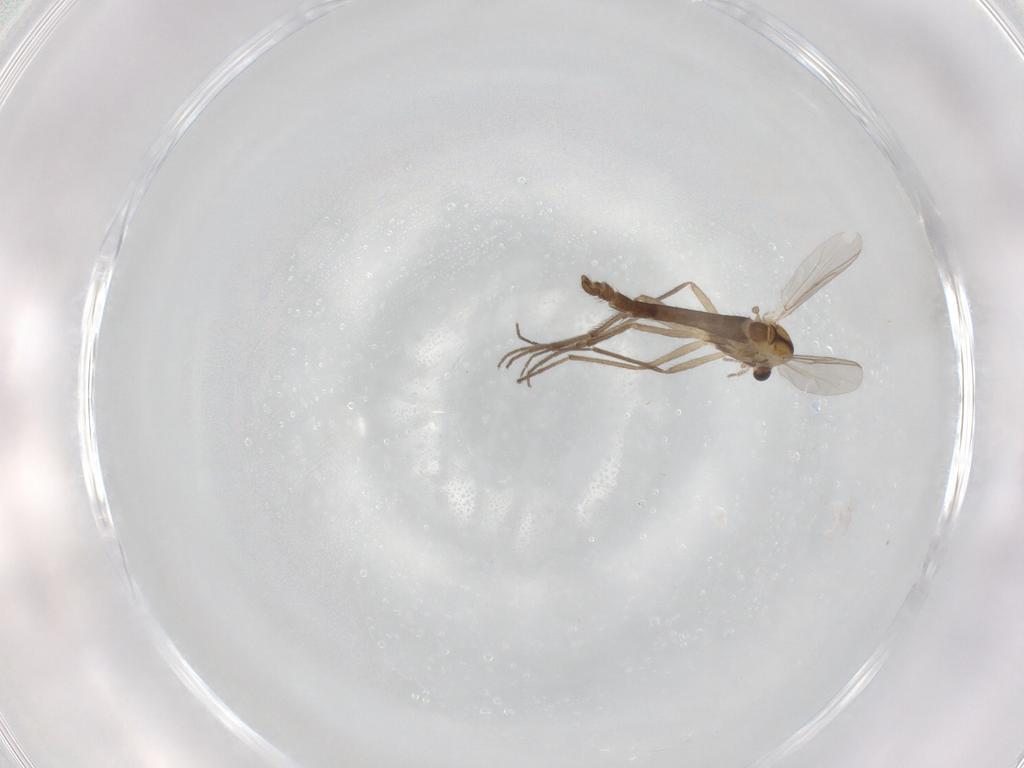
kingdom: Animalia
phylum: Arthropoda
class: Insecta
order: Diptera
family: Chironomidae
